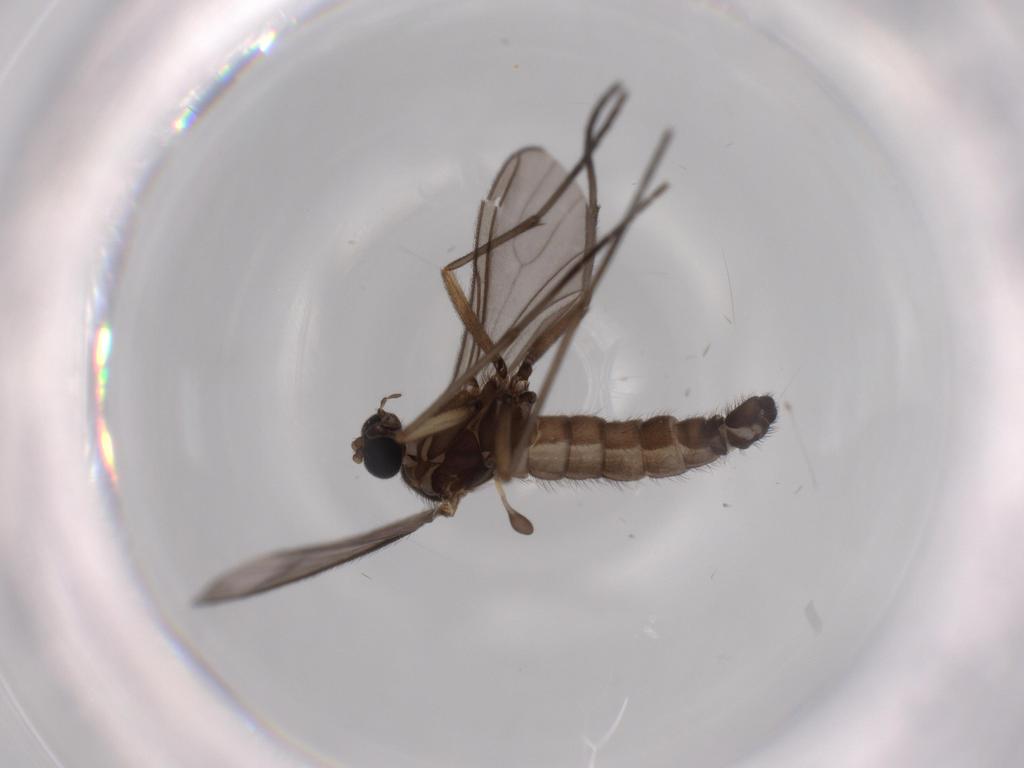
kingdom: Animalia
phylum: Arthropoda
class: Insecta
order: Diptera
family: Sciaridae
